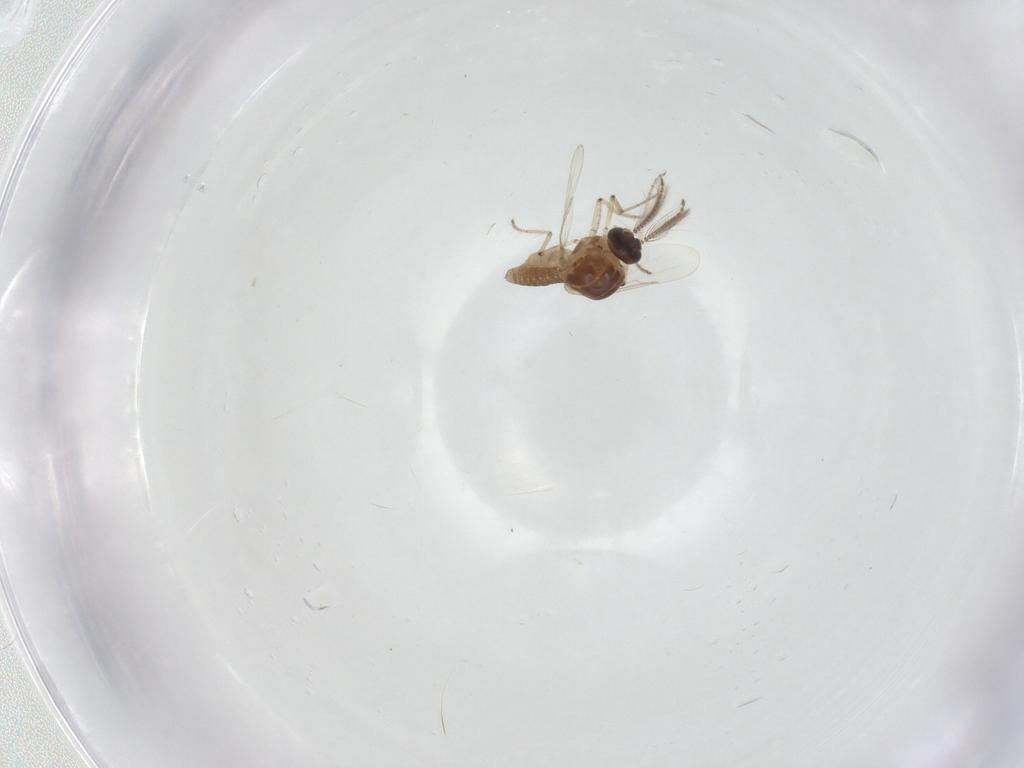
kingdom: Animalia
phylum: Arthropoda
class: Insecta
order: Diptera
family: Ceratopogonidae
